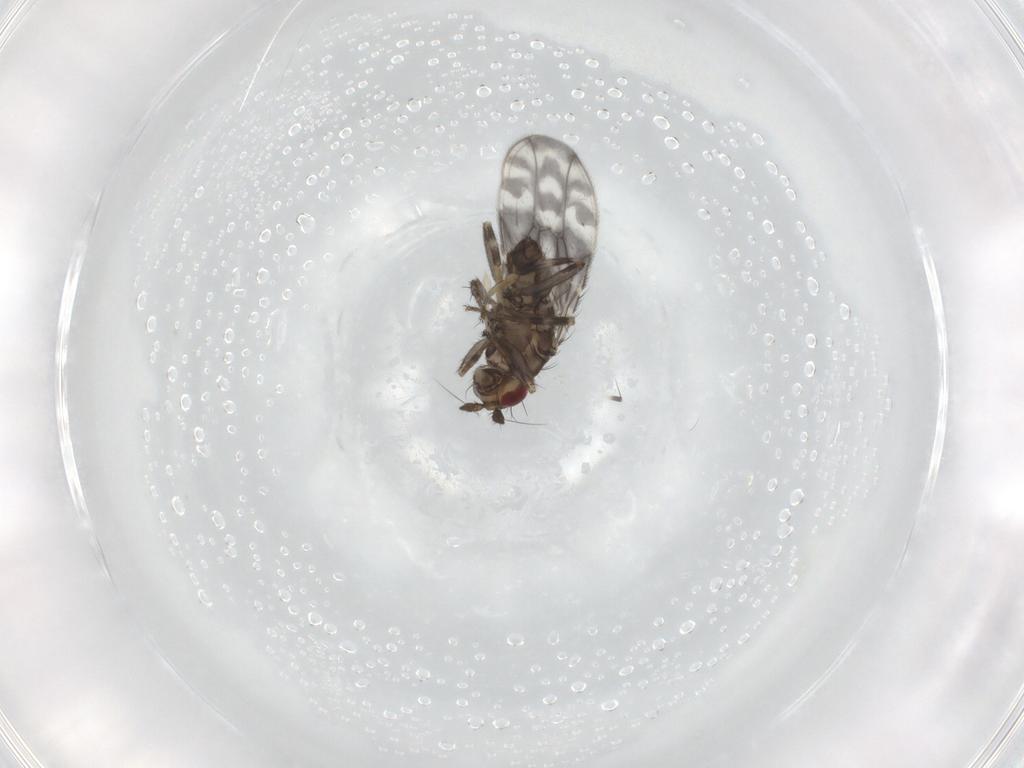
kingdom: Animalia
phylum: Arthropoda
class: Insecta
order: Diptera
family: Sphaeroceridae
